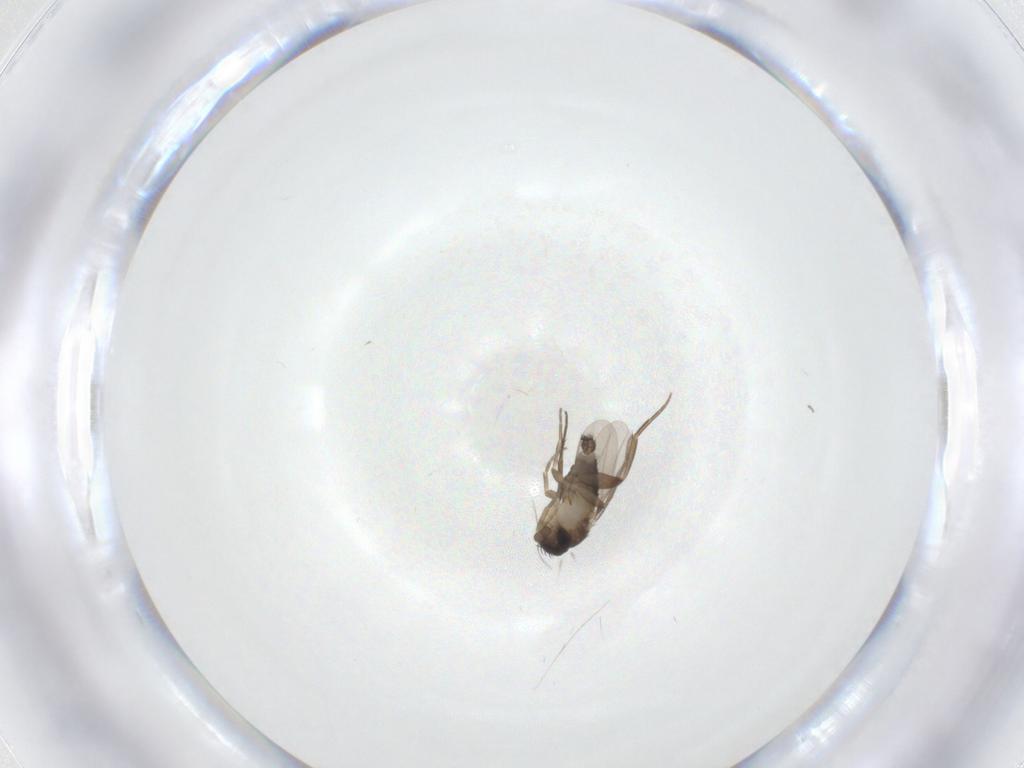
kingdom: Animalia
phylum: Arthropoda
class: Insecta
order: Diptera
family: Phoridae
